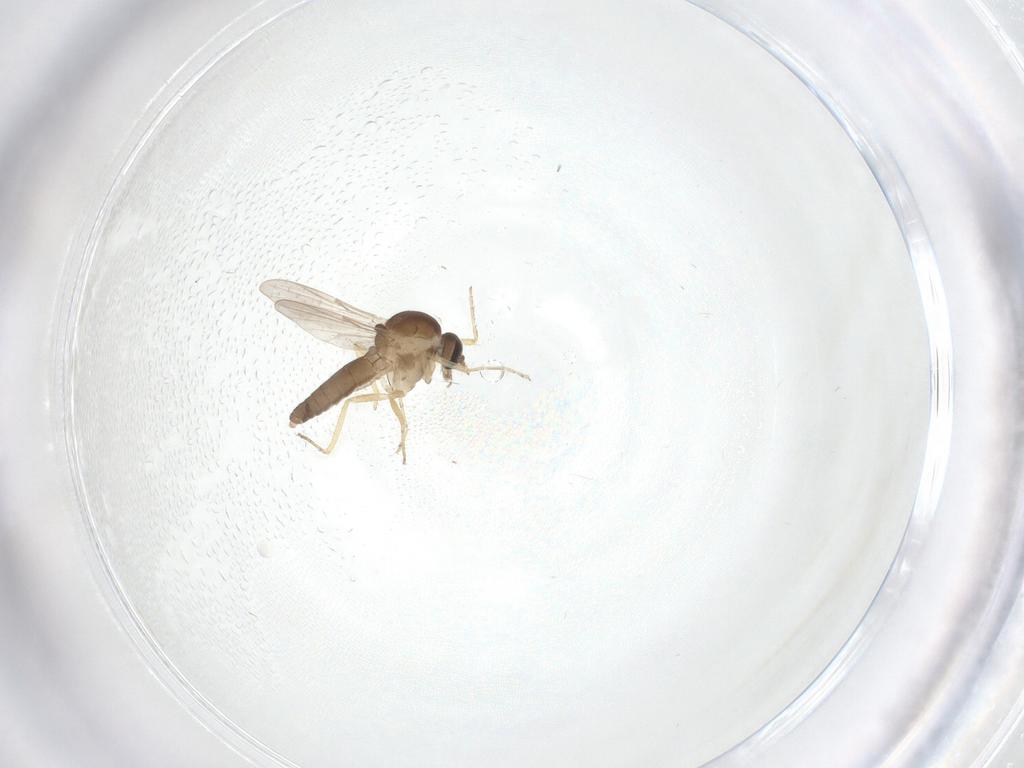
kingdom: Animalia
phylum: Arthropoda
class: Insecta
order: Diptera
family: Ceratopogonidae
